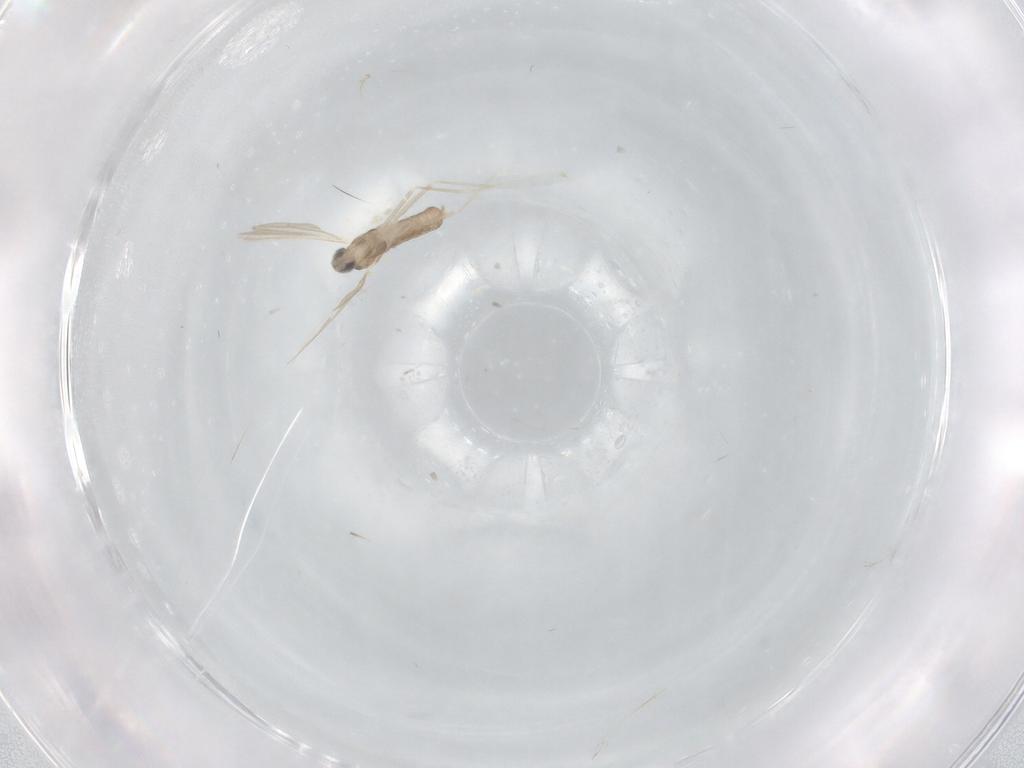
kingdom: Animalia
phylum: Arthropoda
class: Insecta
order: Diptera
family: Cecidomyiidae
